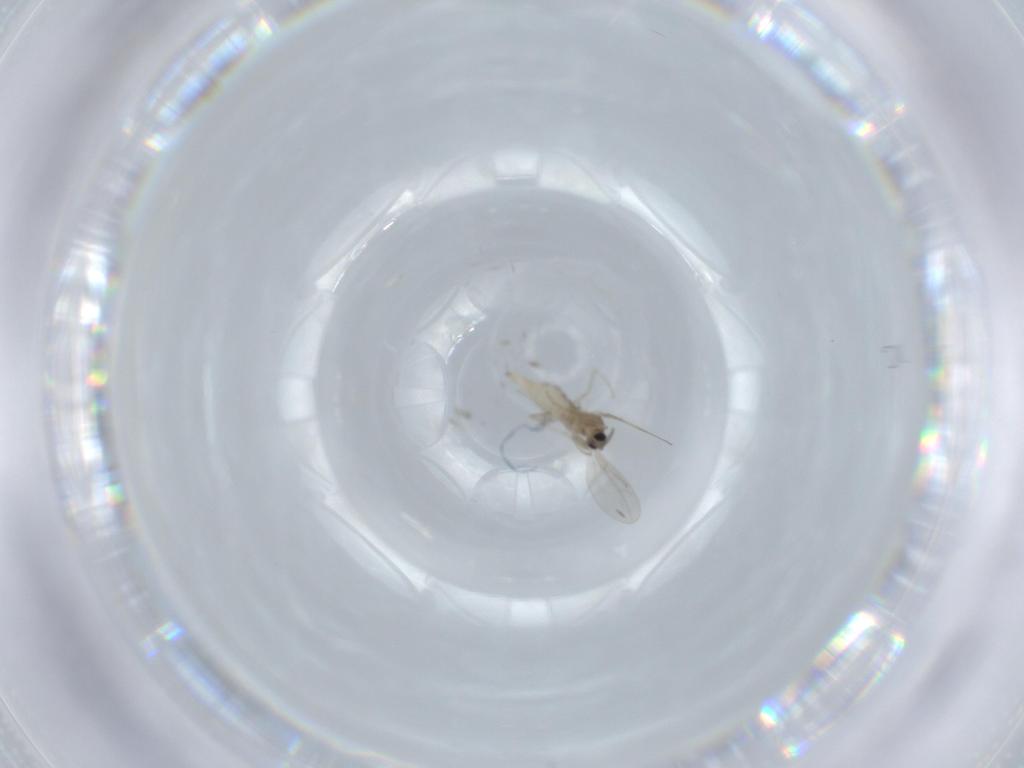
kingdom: Animalia
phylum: Arthropoda
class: Insecta
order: Diptera
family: Cecidomyiidae
